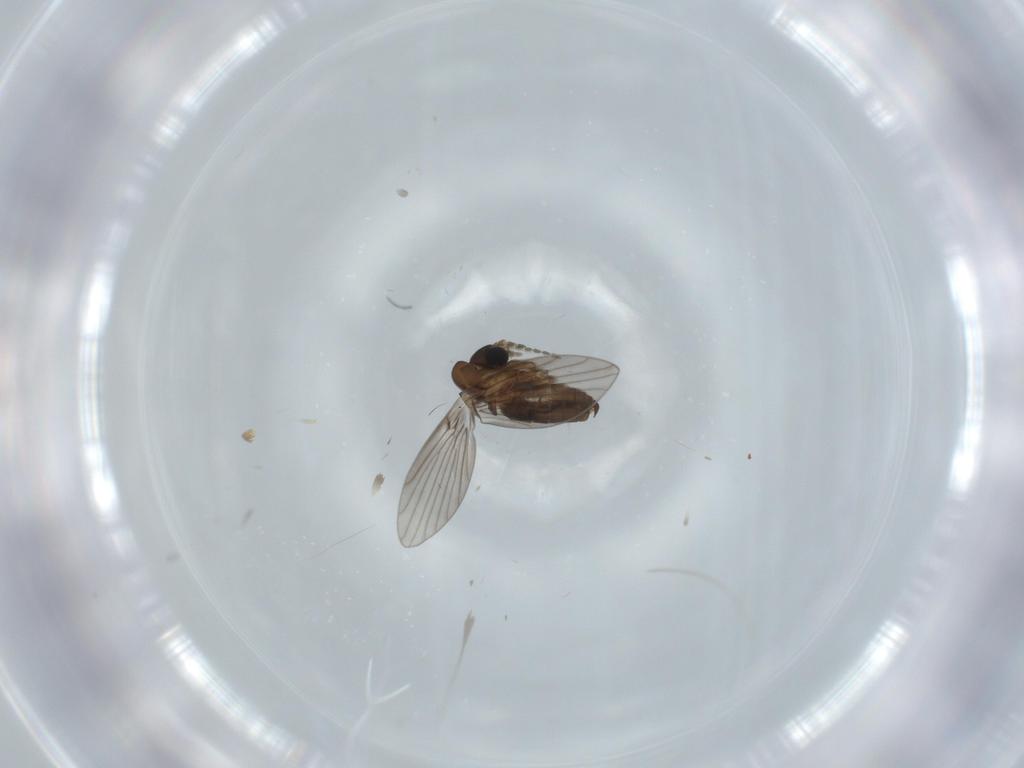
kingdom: Animalia
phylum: Arthropoda
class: Insecta
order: Diptera
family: Psychodidae
